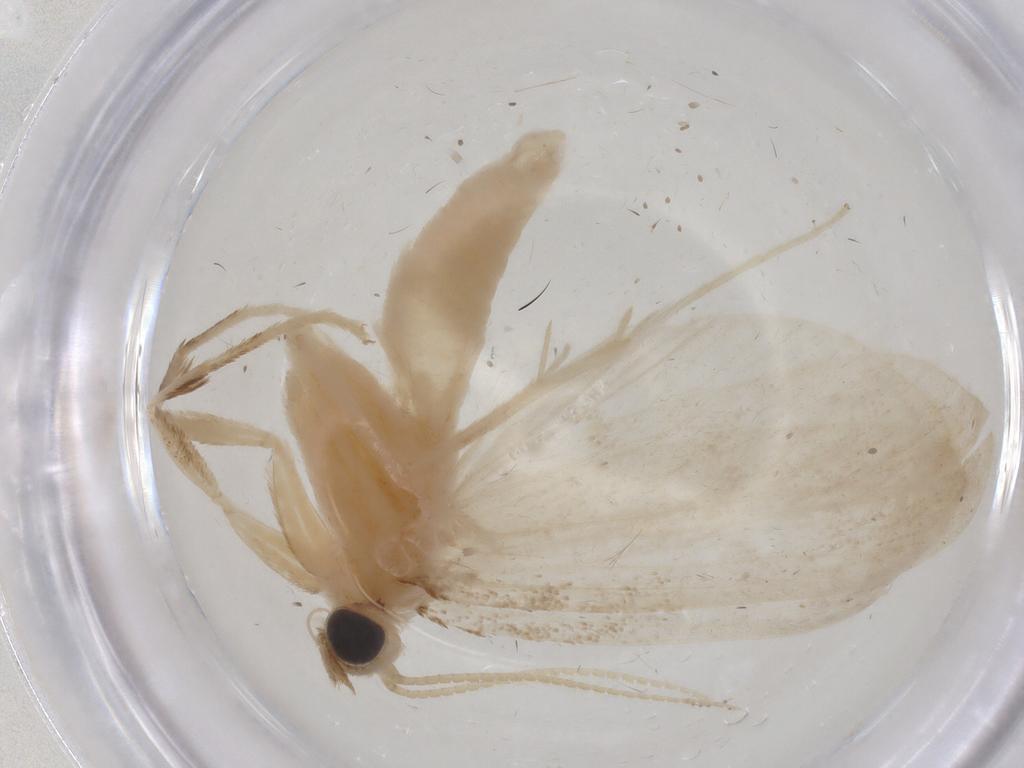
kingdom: Animalia
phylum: Arthropoda
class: Insecta
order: Lepidoptera
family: Crambidae
